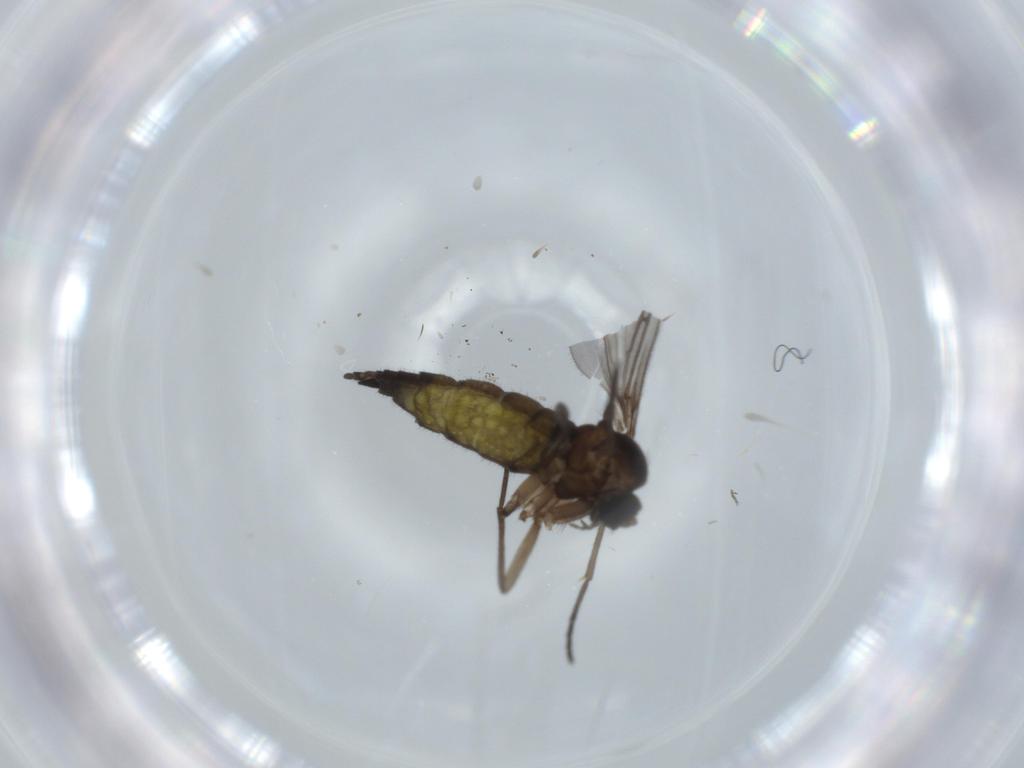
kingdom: Animalia
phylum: Arthropoda
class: Insecta
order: Diptera
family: Sciaridae
